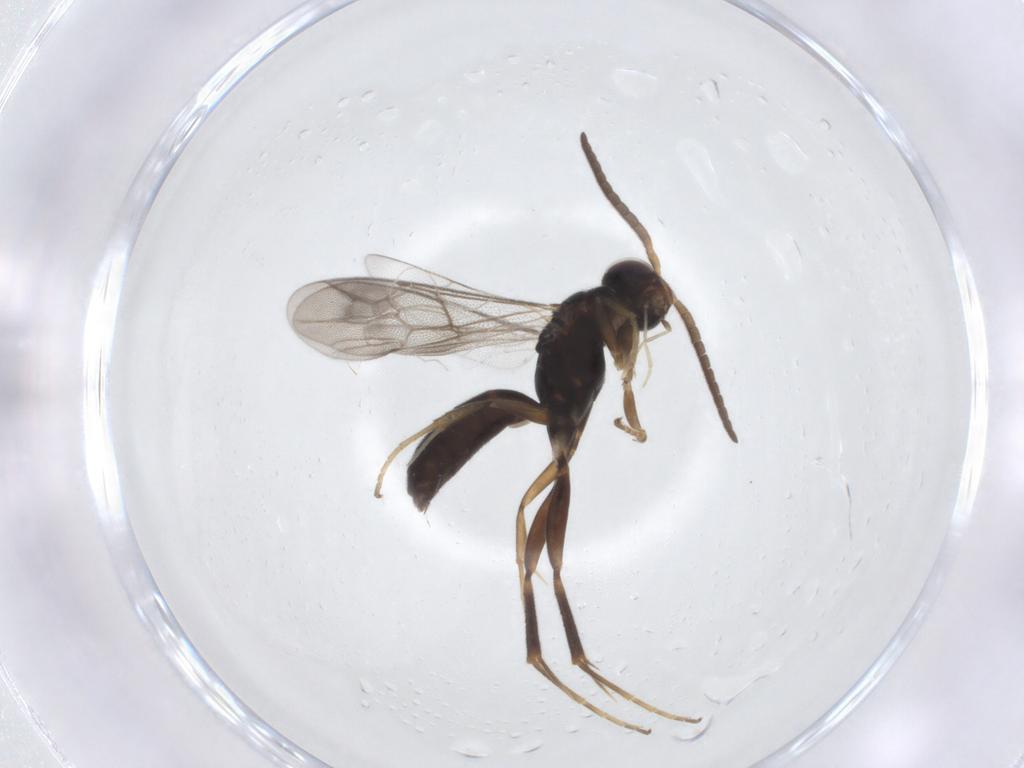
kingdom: Animalia
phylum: Arthropoda
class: Insecta
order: Hymenoptera
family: Pompilidae
